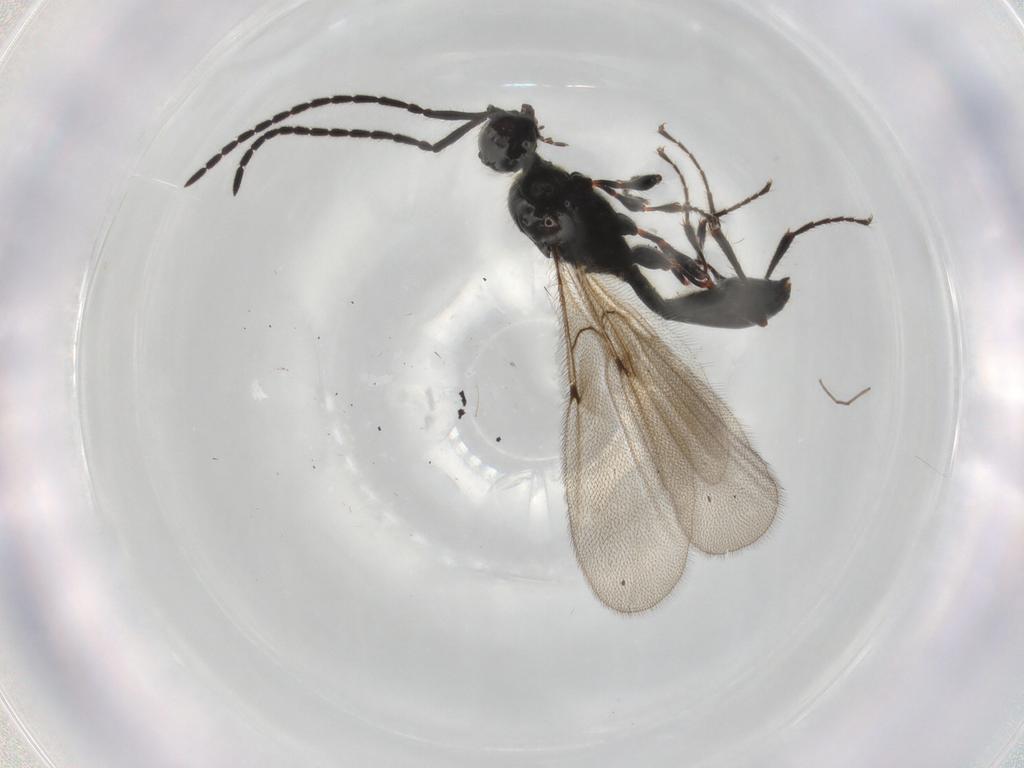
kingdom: Animalia
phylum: Arthropoda
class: Insecta
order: Hymenoptera
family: Diapriidae
